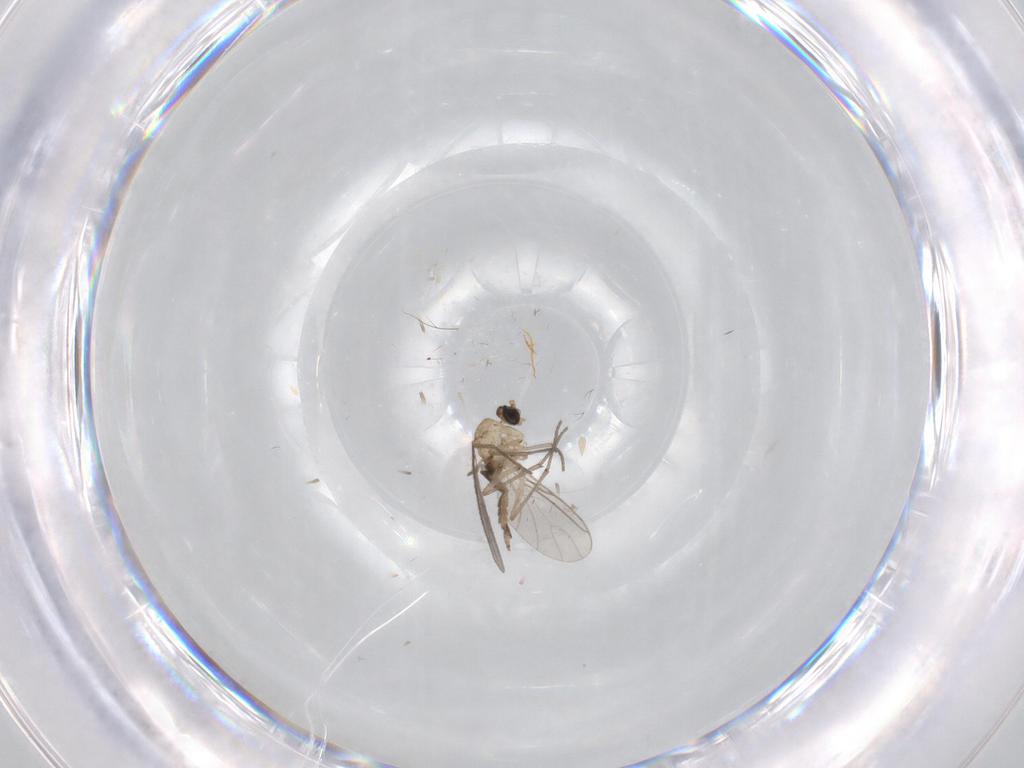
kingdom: Animalia
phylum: Arthropoda
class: Insecta
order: Diptera
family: Sciaridae
